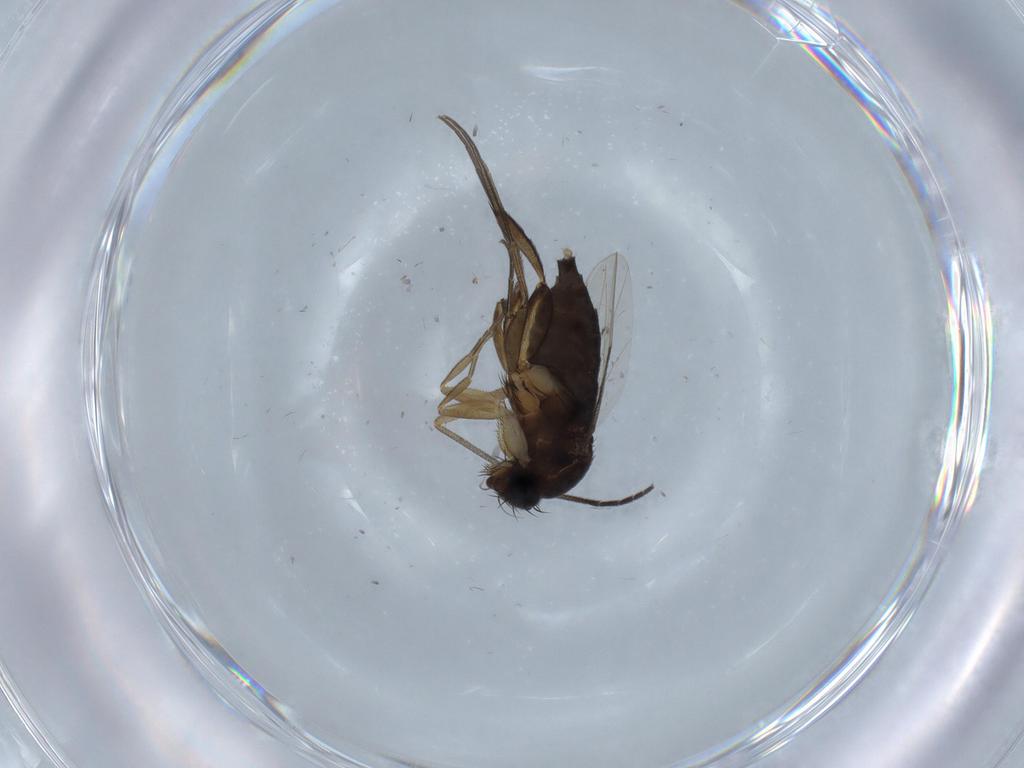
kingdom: Animalia
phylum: Arthropoda
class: Insecta
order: Diptera
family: Phoridae
